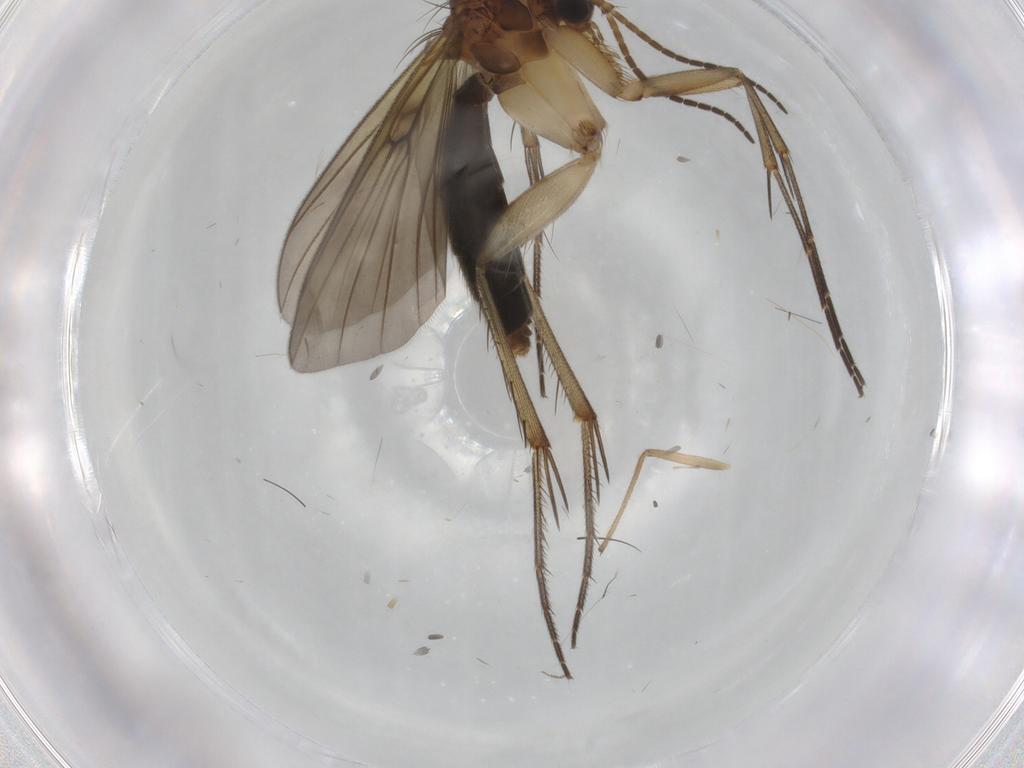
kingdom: Animalia
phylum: Arthropoda
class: Insecta
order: Diptera
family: Mycetophilidae
